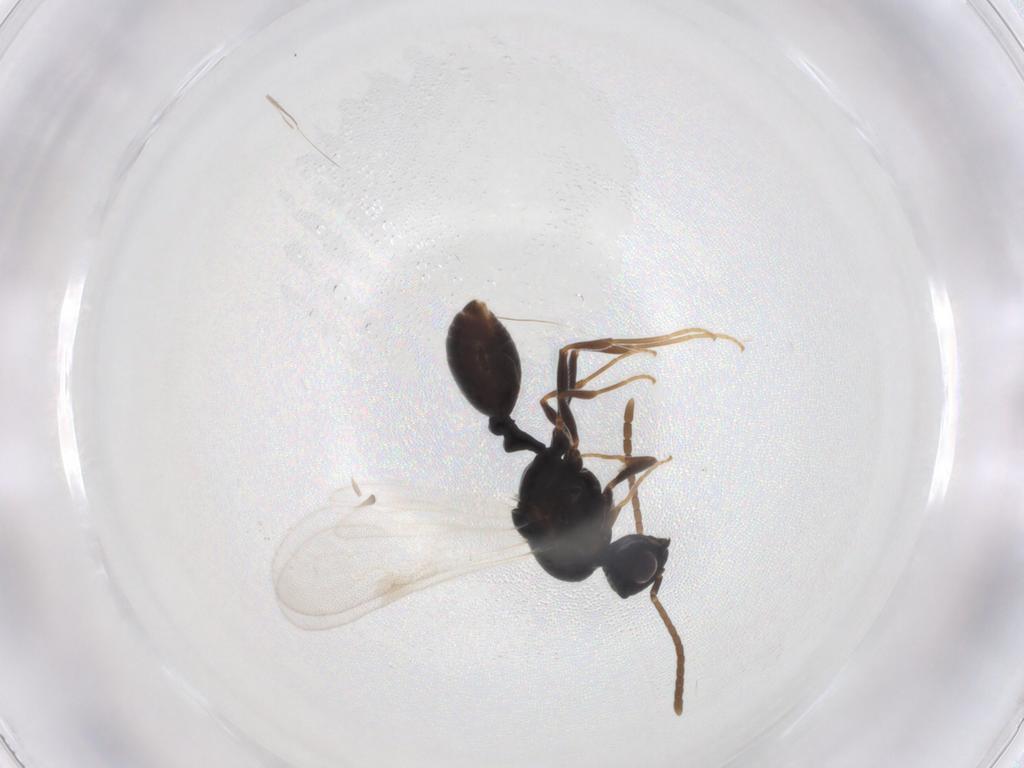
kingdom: Animalia
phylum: Arthropoda
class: Insecta
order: Hymenoptera
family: Formicidae
